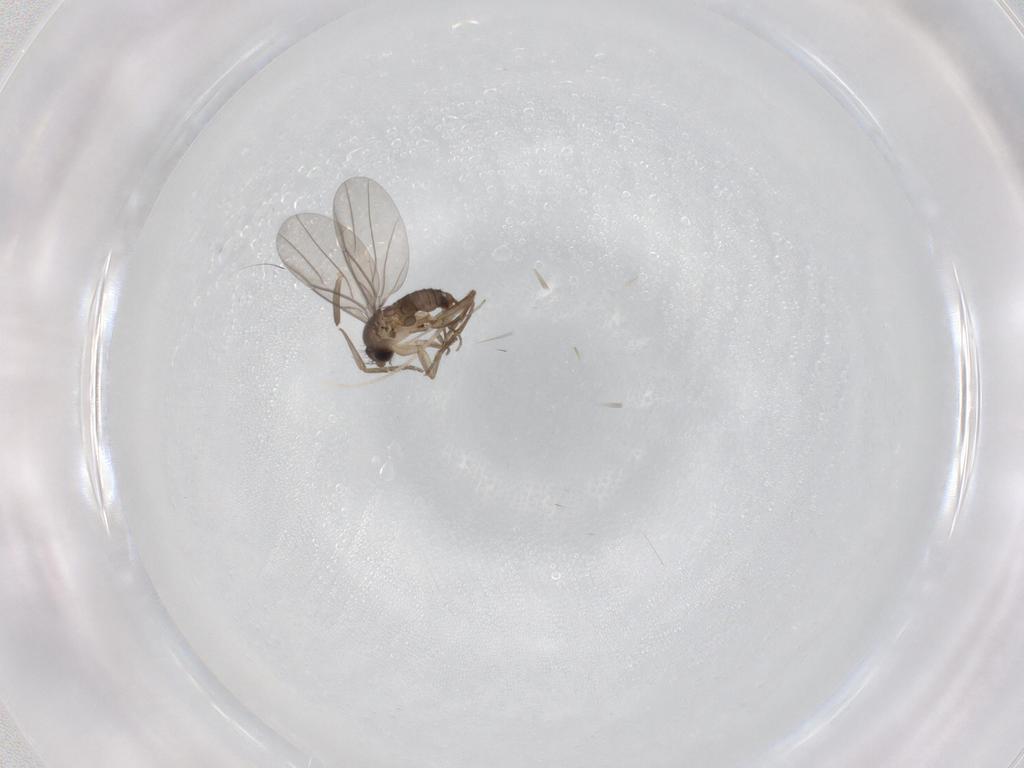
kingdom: Animalia
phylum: Arthropoda
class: Insecta
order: Diptera
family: Phoridae
